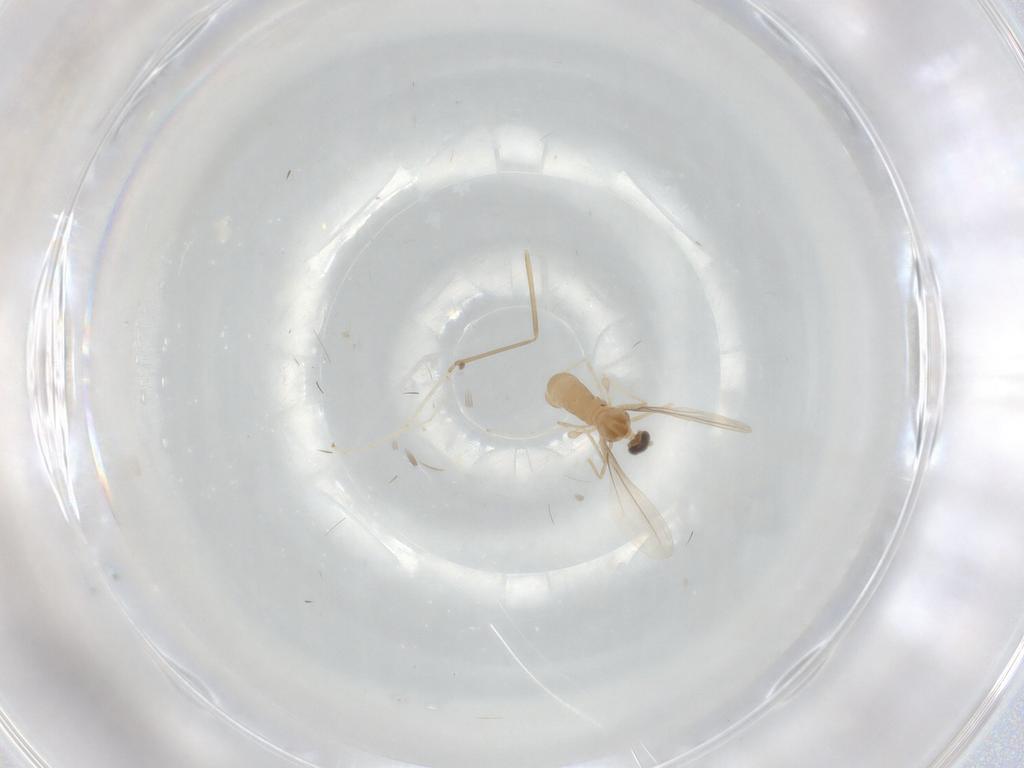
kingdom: Animalia
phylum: Arthropoda
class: Insecta
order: Diptera
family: Cecidomyiidae
